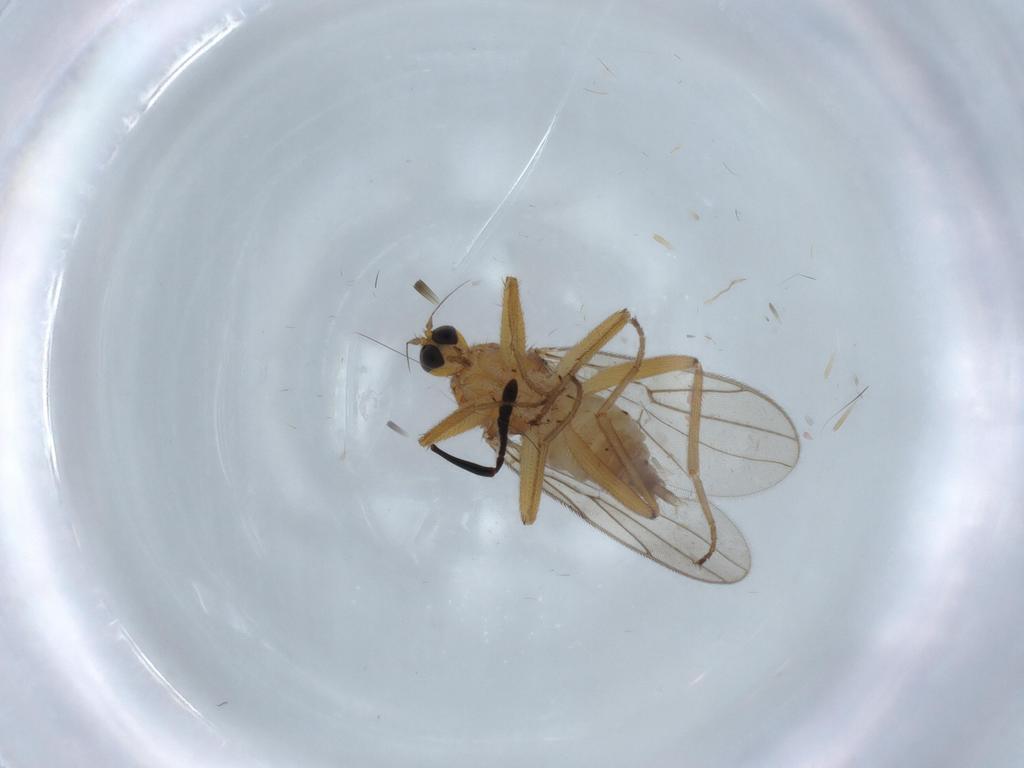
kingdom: Animalia
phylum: Arthropoda
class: Insecta
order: Diptera
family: Hybotidae
